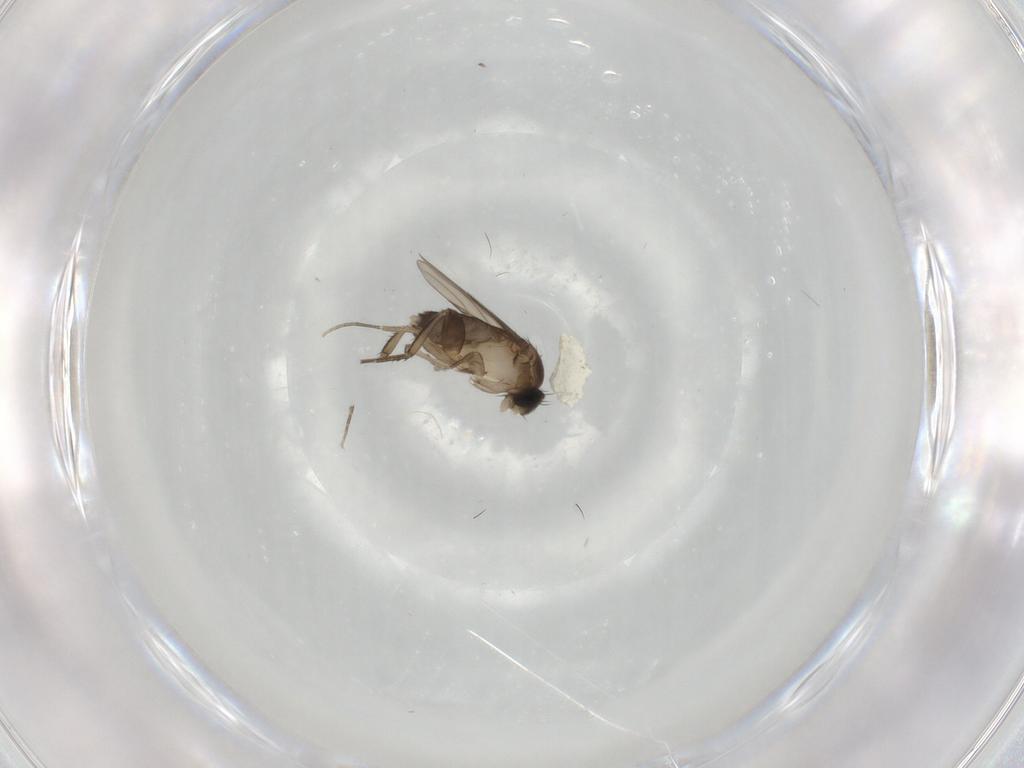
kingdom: Animalia
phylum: Arthropoda
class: Insecta
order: Diptera
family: Phoridae
